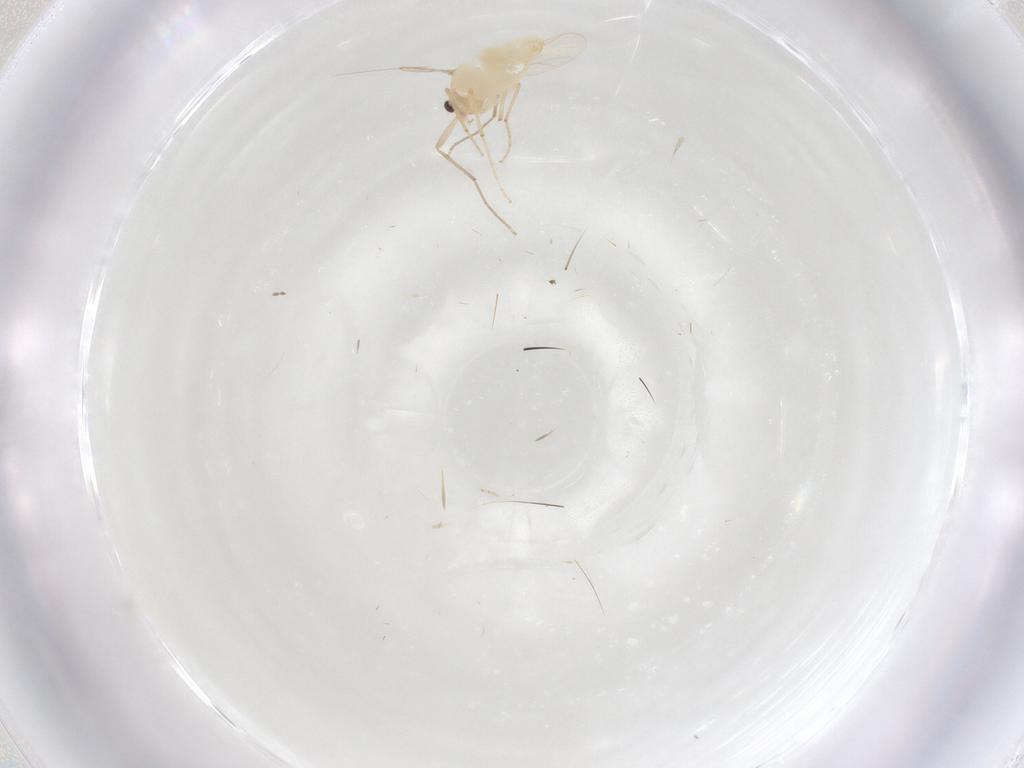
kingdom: Animalia
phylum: Arthropoda
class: Insecta
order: Diptera
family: Chironomidae
